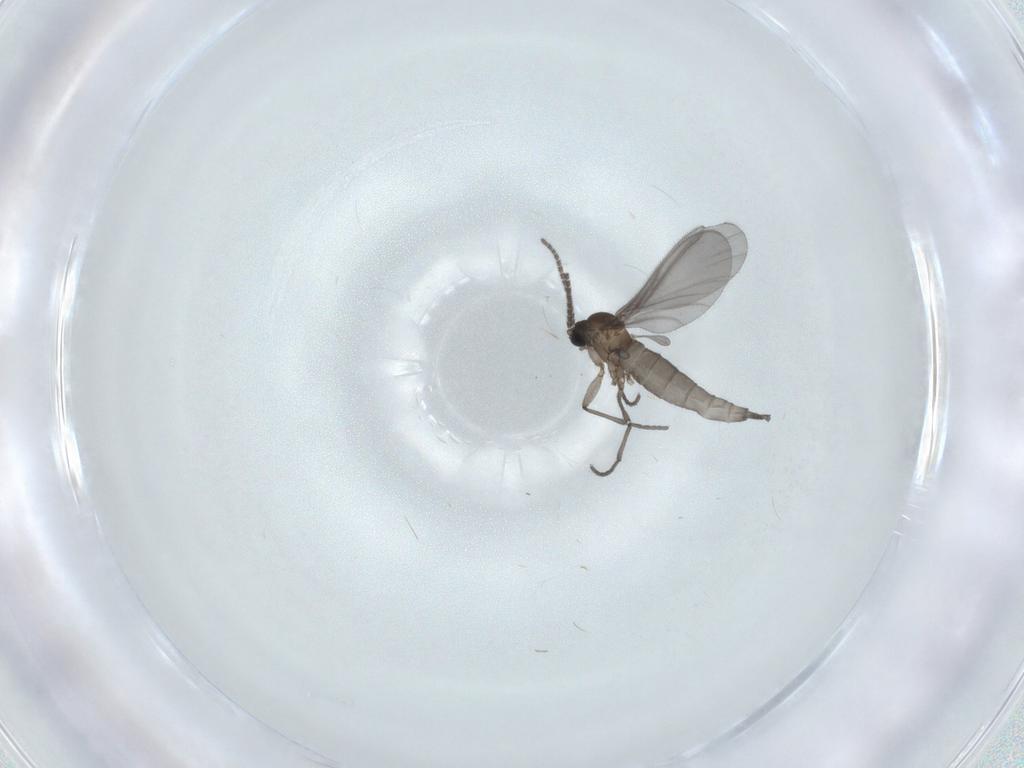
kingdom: Animalia
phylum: Arthropoda
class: Insecta
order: Diptera
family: Sciaridae
